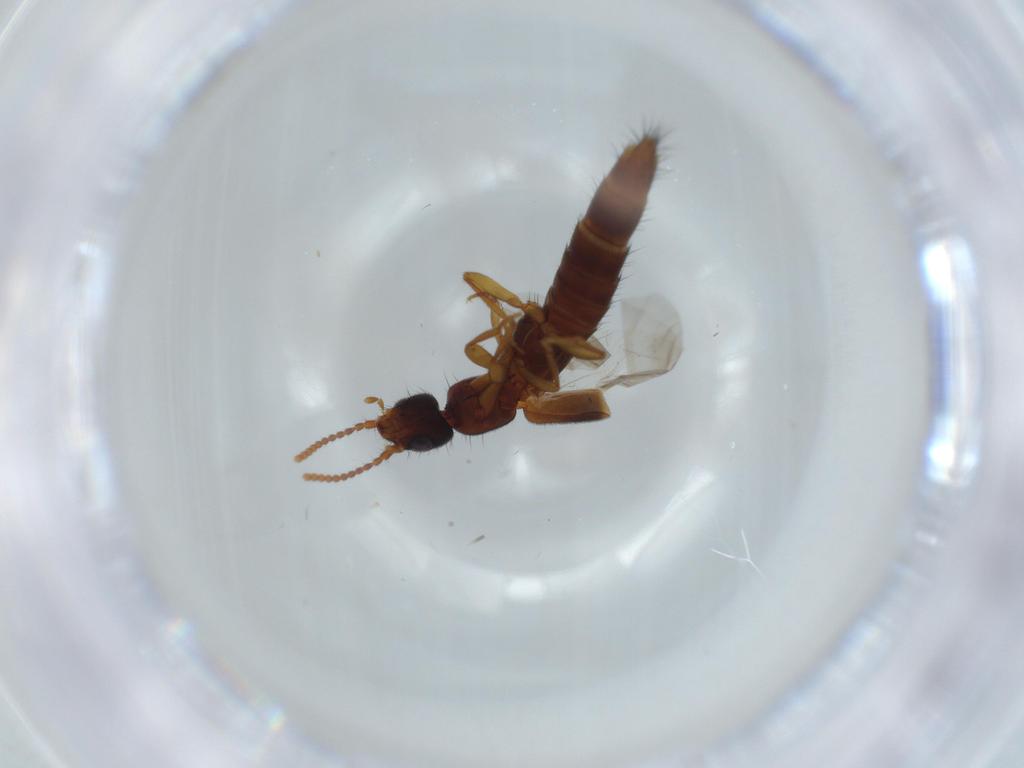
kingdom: Animalia
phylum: Arthropoda
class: Insecta
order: Coleoptera
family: Staphylinidae
